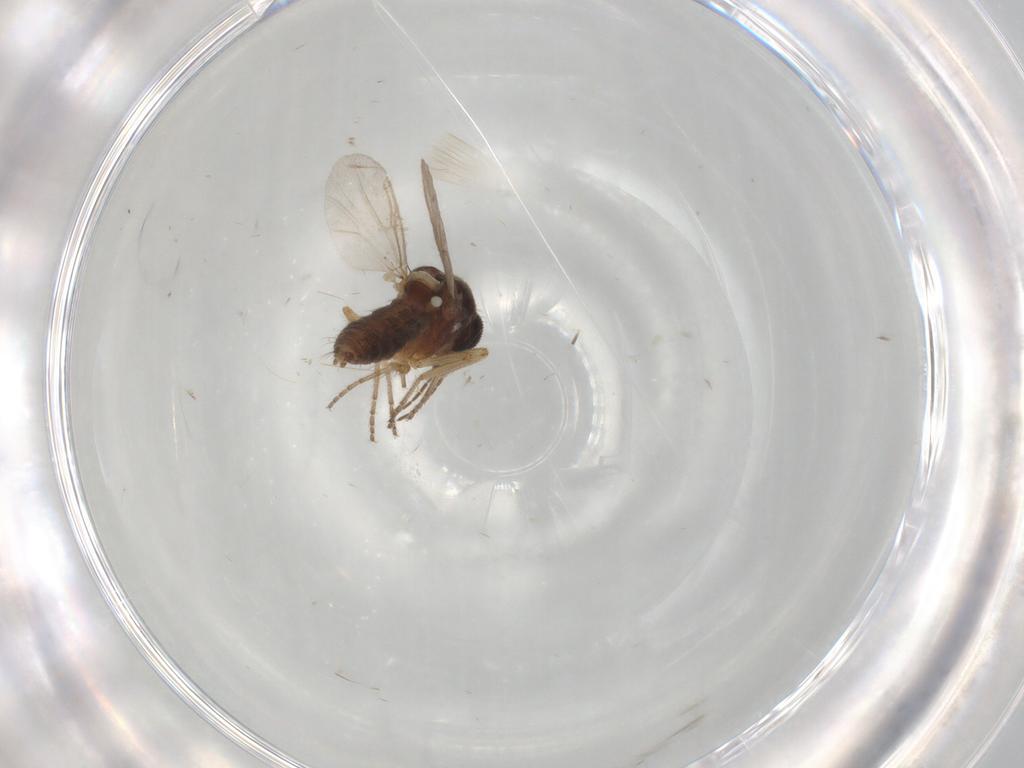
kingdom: Animalia
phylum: Arthropoda
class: Insecta
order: Diptera
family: Cecidomyiidae
